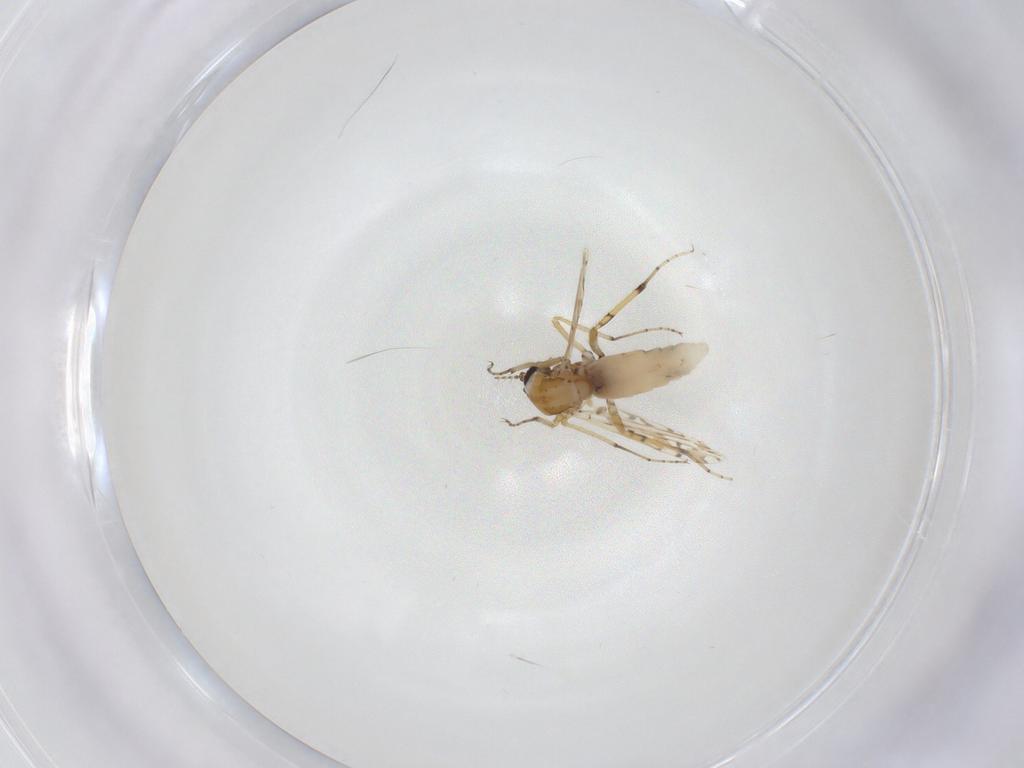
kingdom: Animalia
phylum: Arthropoda
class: Insecta
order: Diptera
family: Ceratopogonidae
